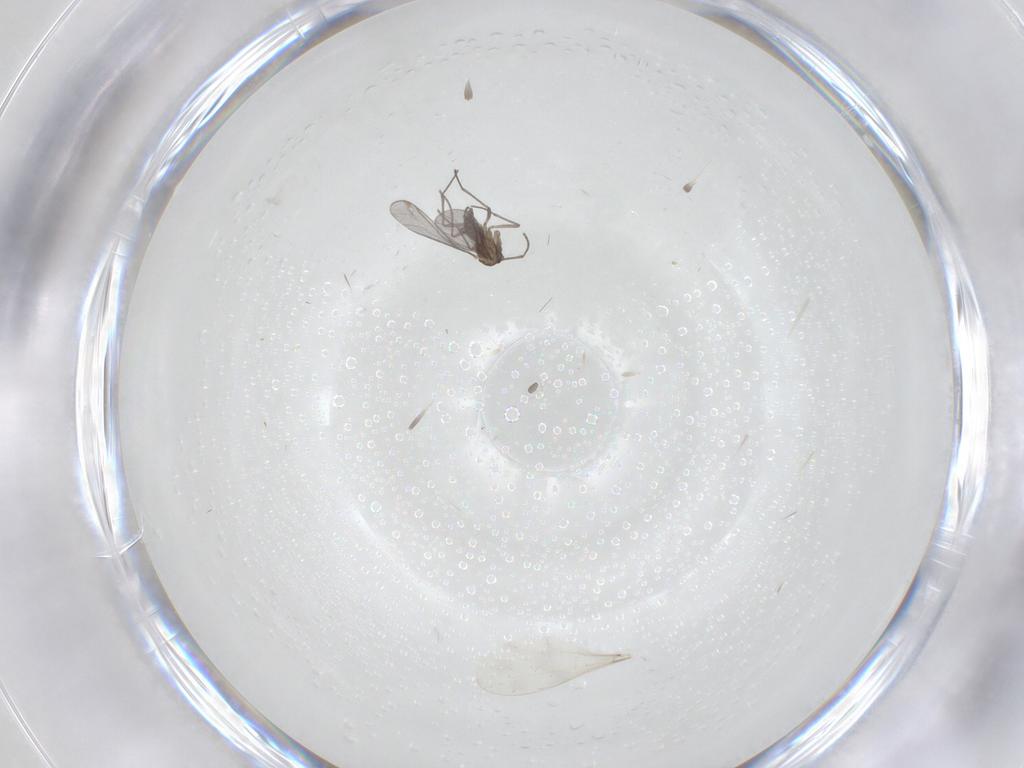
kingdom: Animalia
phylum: Arthropoda
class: Insecta
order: Diptera
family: Sciaridae
